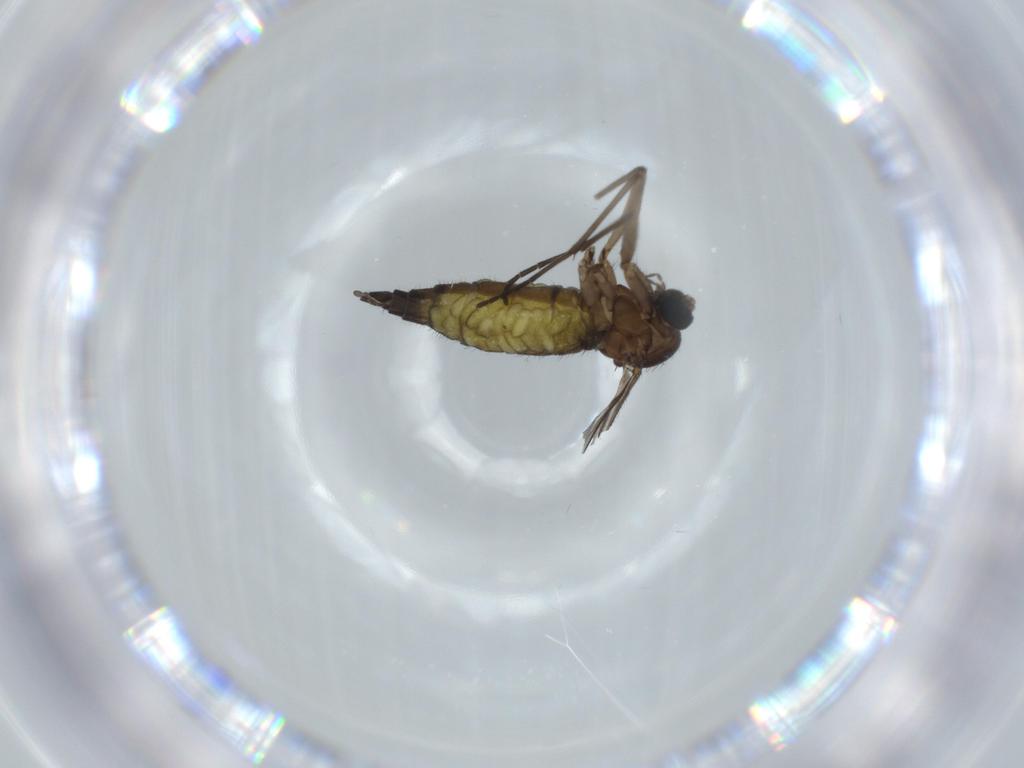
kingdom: Animalia
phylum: Arthropoda
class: Insecta
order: Diptera
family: Sciaridae
